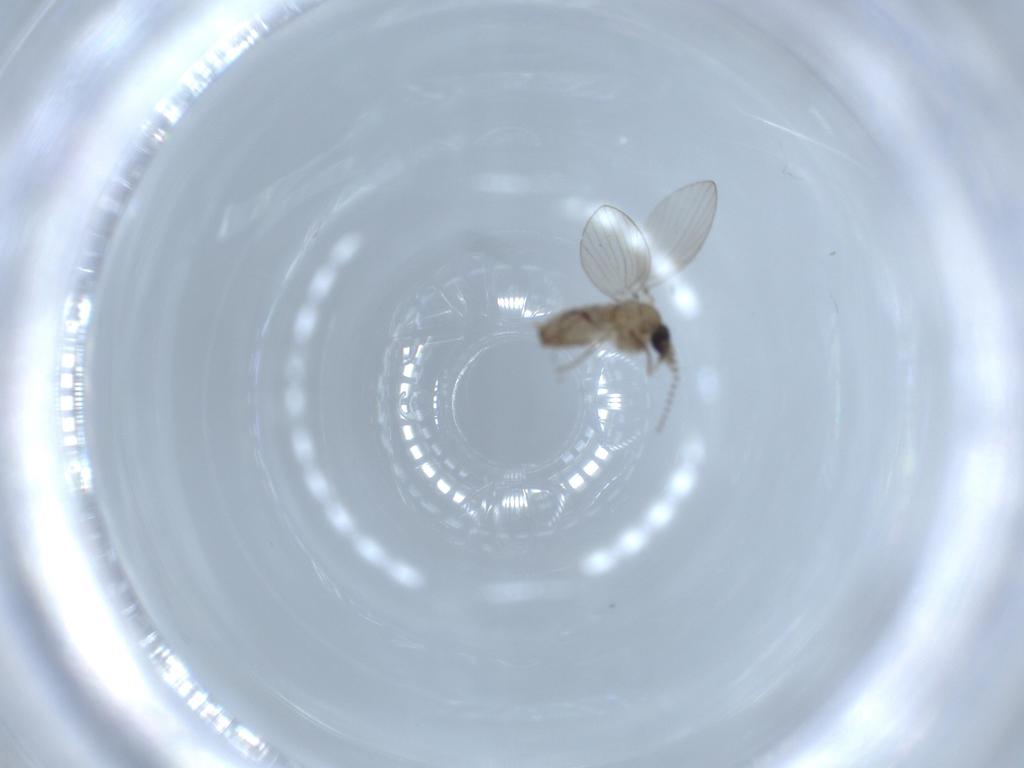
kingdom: Animalia
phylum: Arthropoda
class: Insecta
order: Diptera
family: Psychodidae
